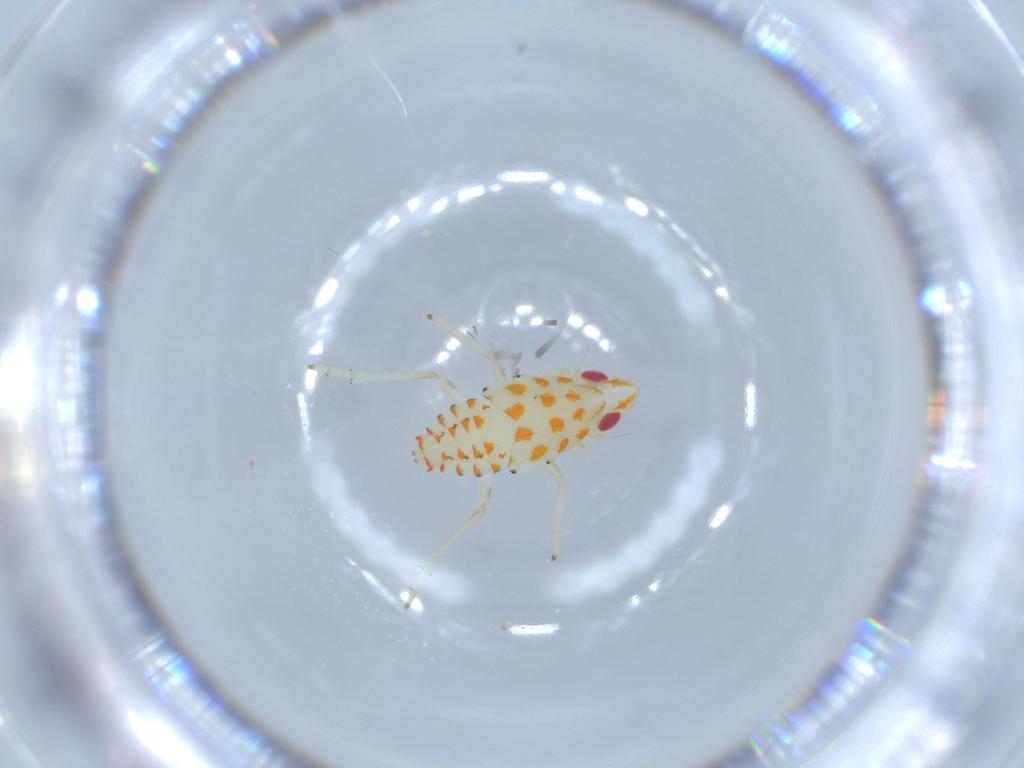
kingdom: Animalia
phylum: Arthropoda
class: Insecta
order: Hemiptera
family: Tropiduchidae
